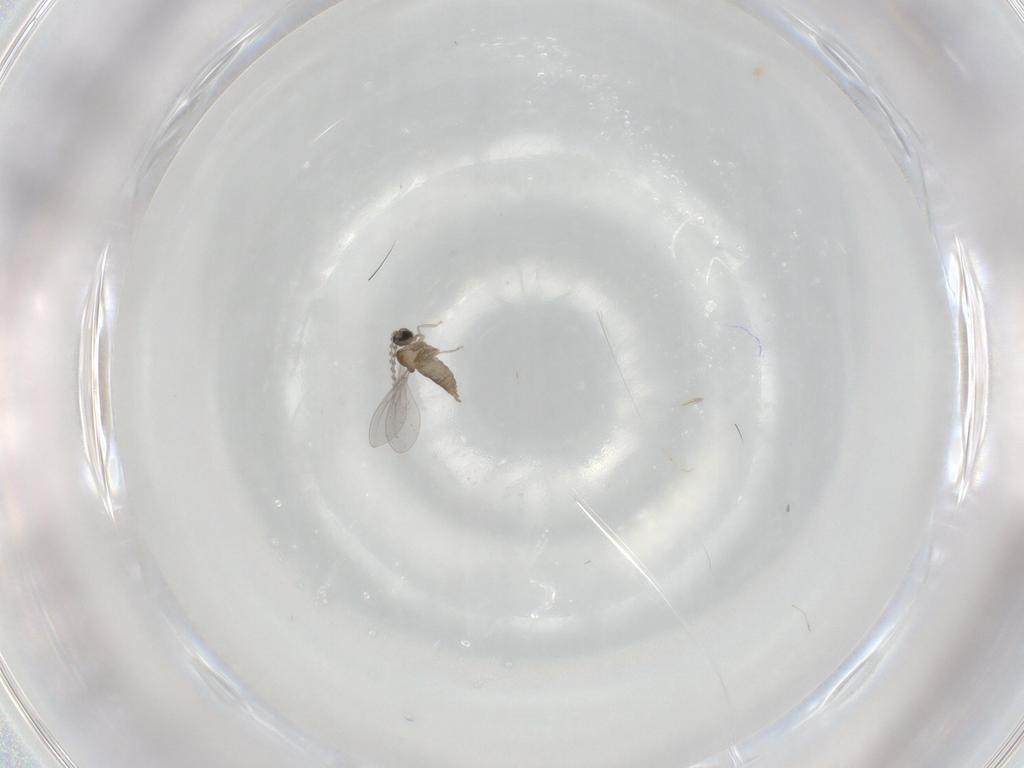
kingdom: Animalia
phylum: Arthropoda
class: Insecta
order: Diptera
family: Cecidomyiidae
